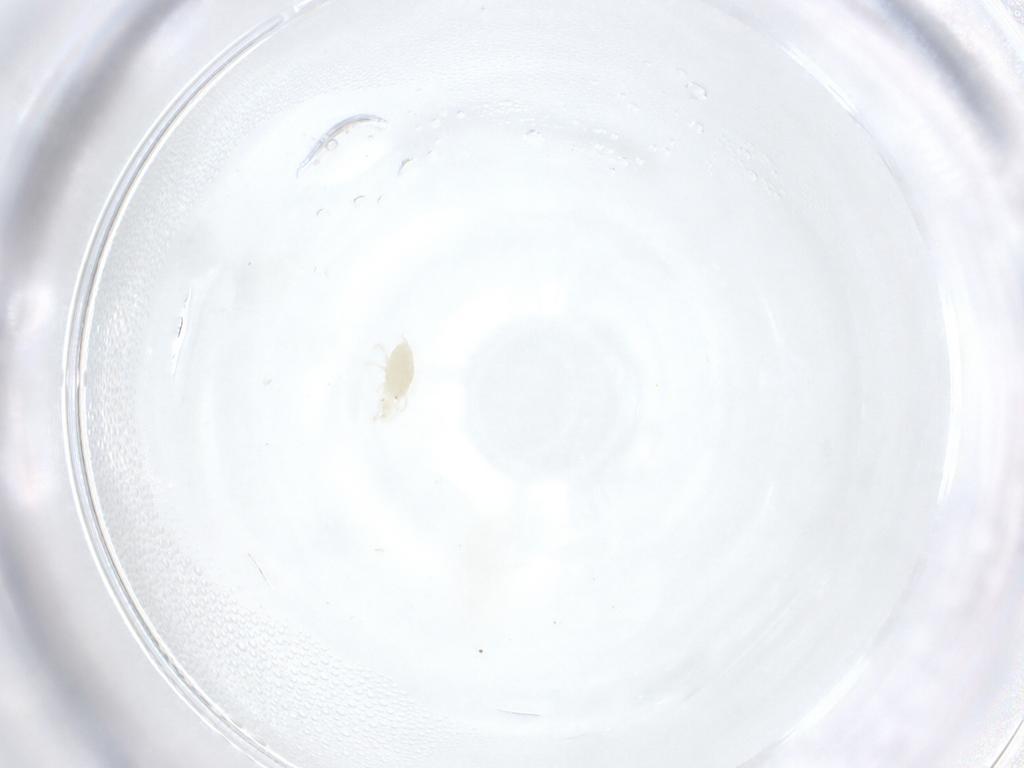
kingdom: Animalia
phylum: Arthropoda
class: Arachnida
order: Trombidiformes
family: Stigmaeidae
